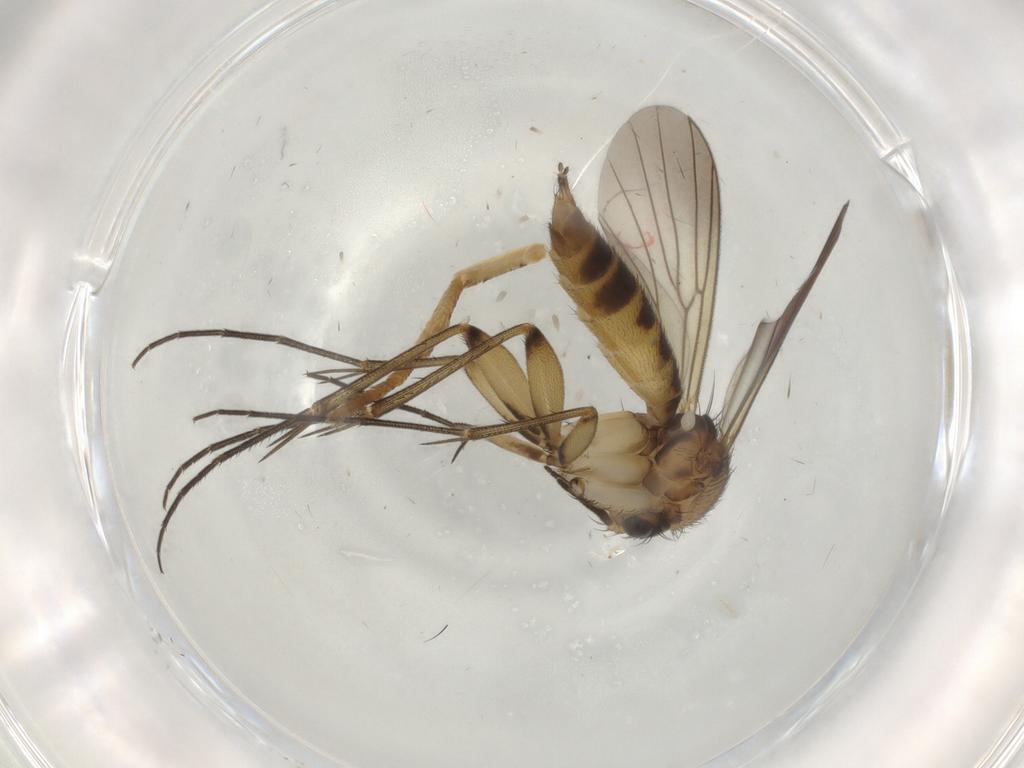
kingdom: Animalia
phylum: Arthropoda
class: Insecta
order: Diptera
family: Mycetophilidae
